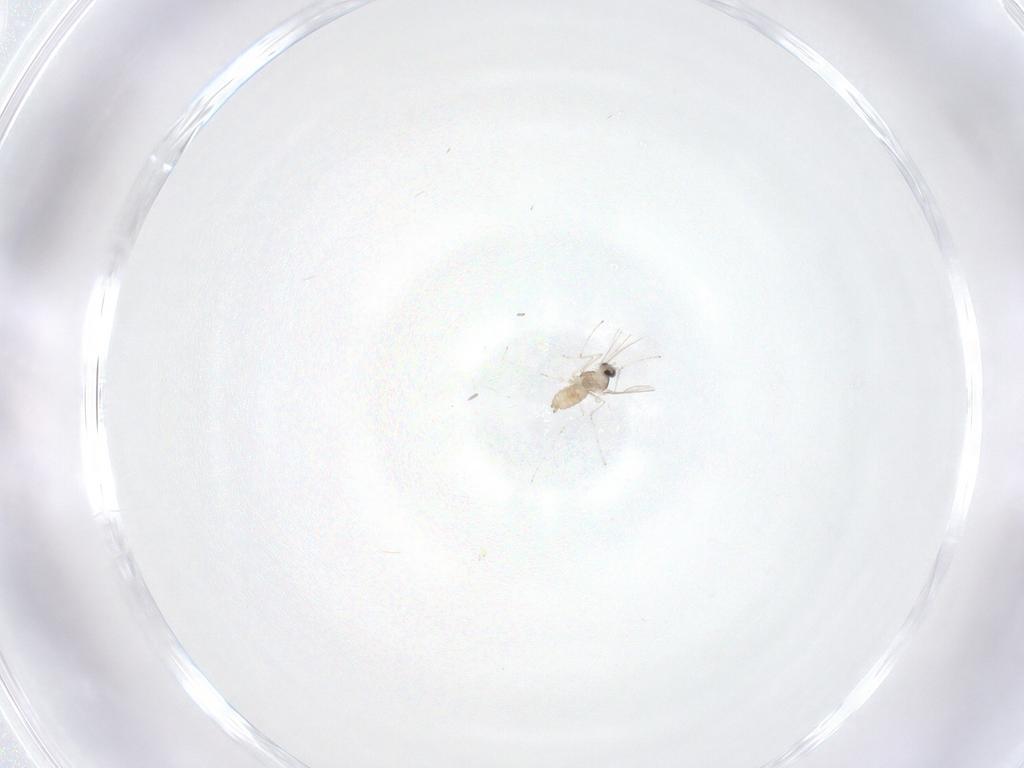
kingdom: Animalia
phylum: Arthropoda
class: Insecta
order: Diptera
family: Cecidomyiidae
